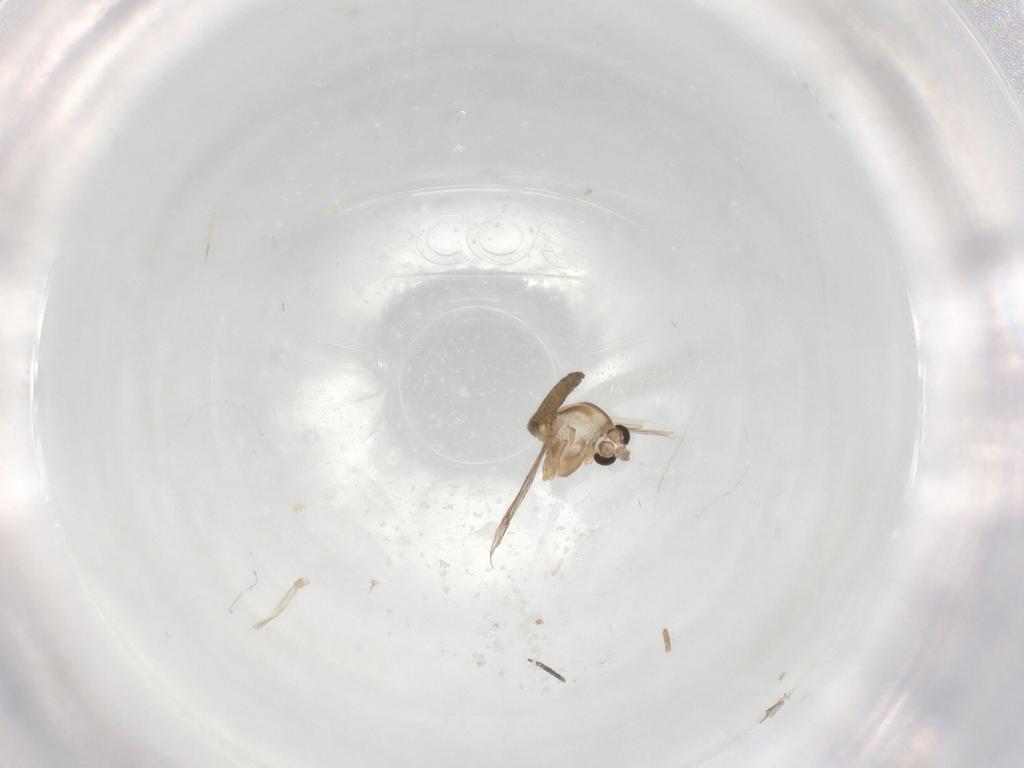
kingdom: Animalia
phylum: Arthropoda
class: Insecta
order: Diptera
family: Chironomidae
